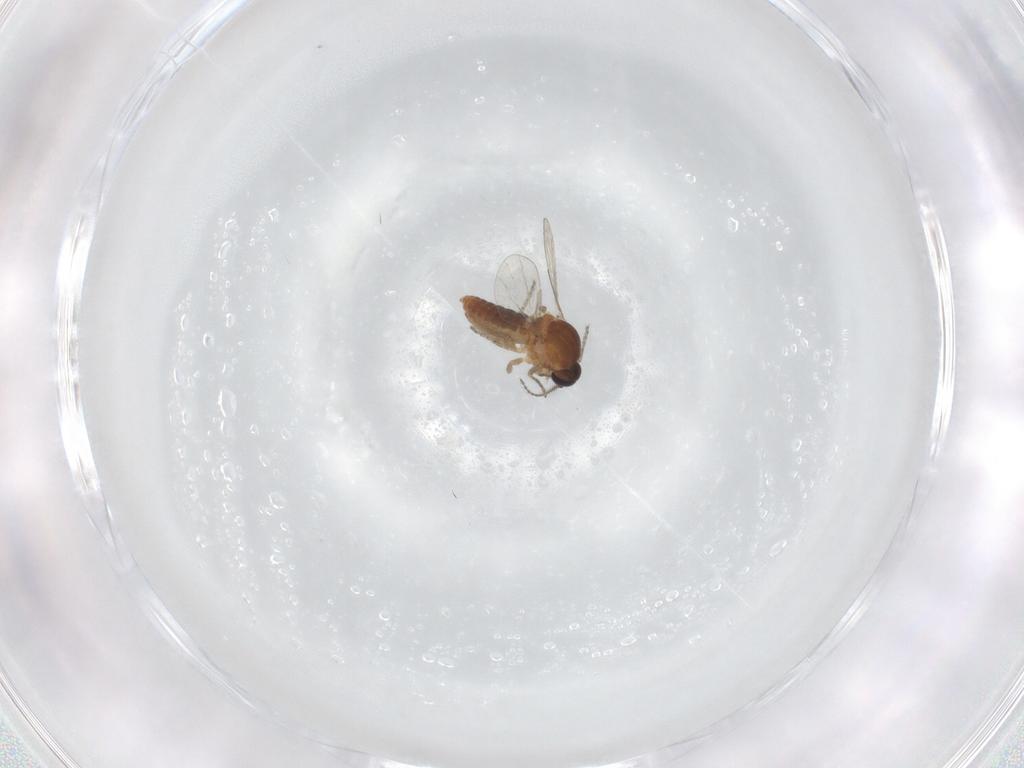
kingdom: Animalia
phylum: Arthropoda
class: Insecta
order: Diptera
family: Ceratopogonidae
